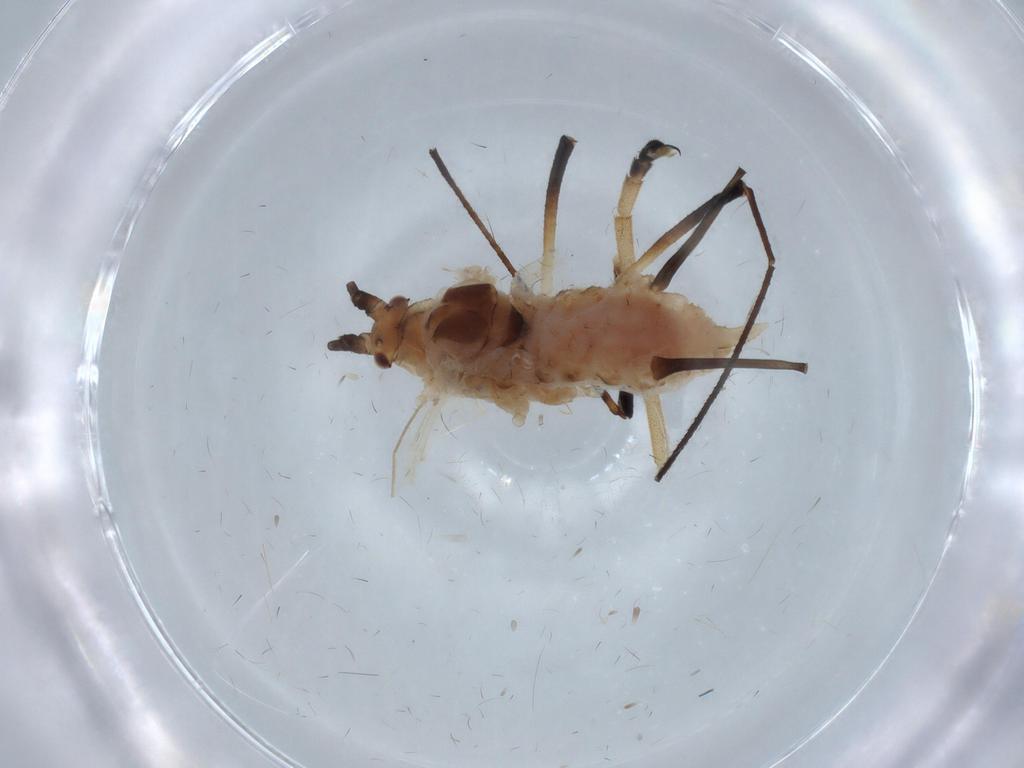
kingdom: Animalia
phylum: Arthropoda
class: Insecta
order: Hemiptera
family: Aphididae
